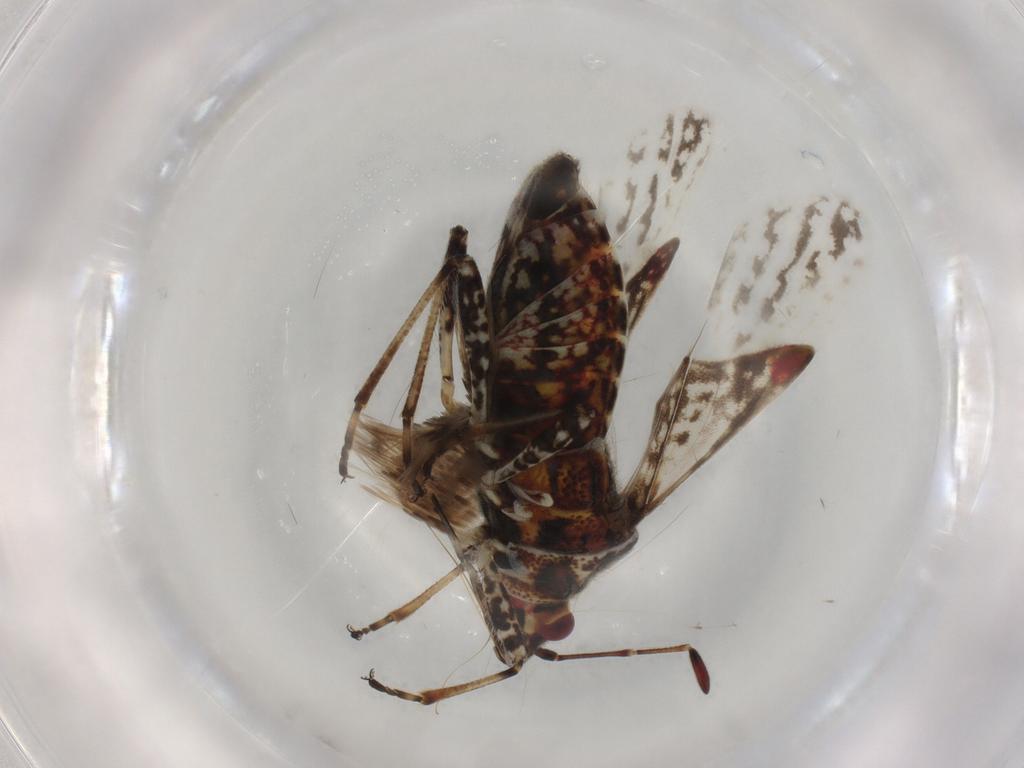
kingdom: Animalia
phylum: Arthropoda
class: Insecta
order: Hemiptera
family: Lygaeidae
